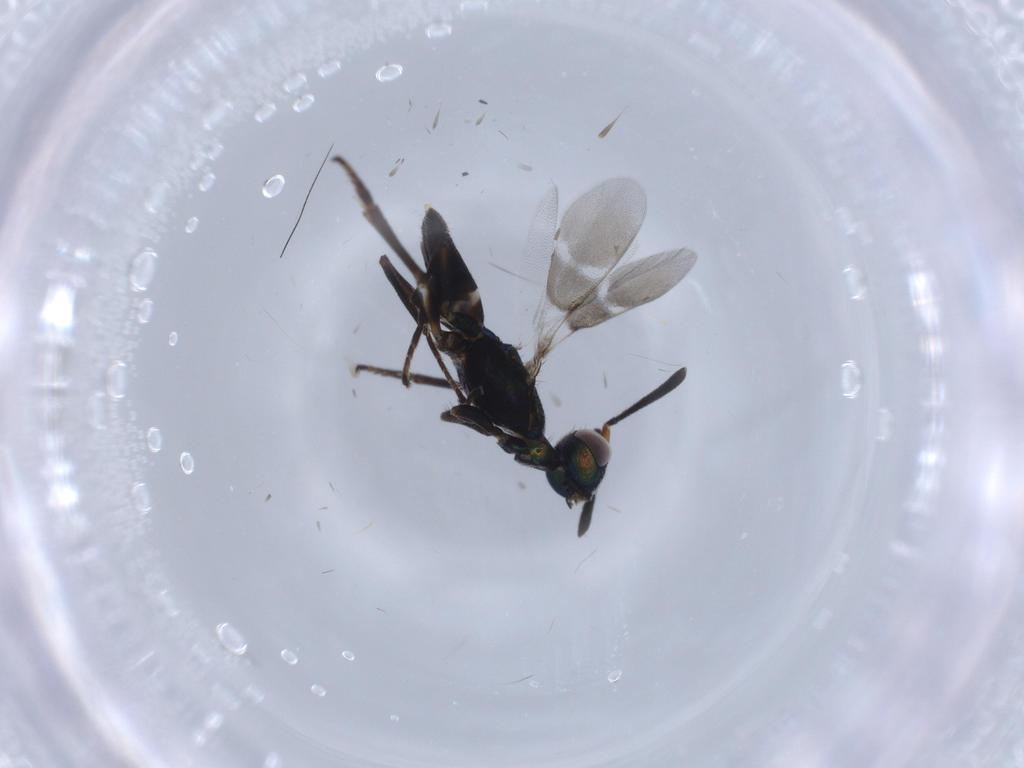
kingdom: Animalia
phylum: Arthropoda
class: Insecta
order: Hymenoptera
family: Eupelmidae
